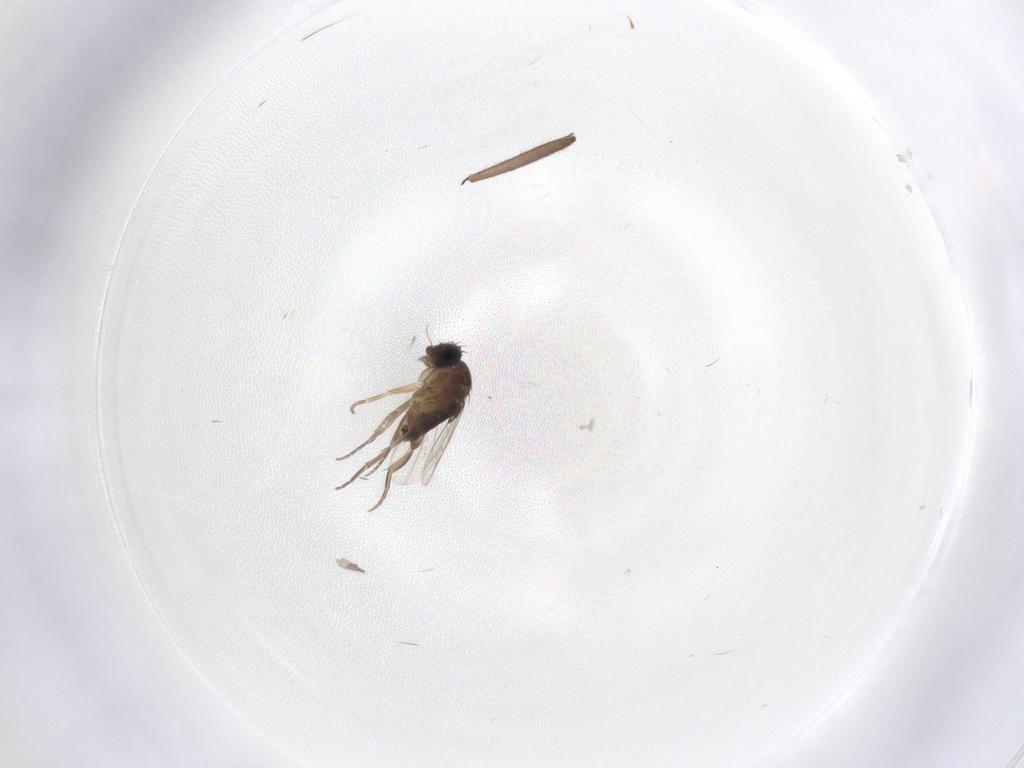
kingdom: Animalia
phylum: Arthropoda
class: Insecta
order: Diptera
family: Phoridae
